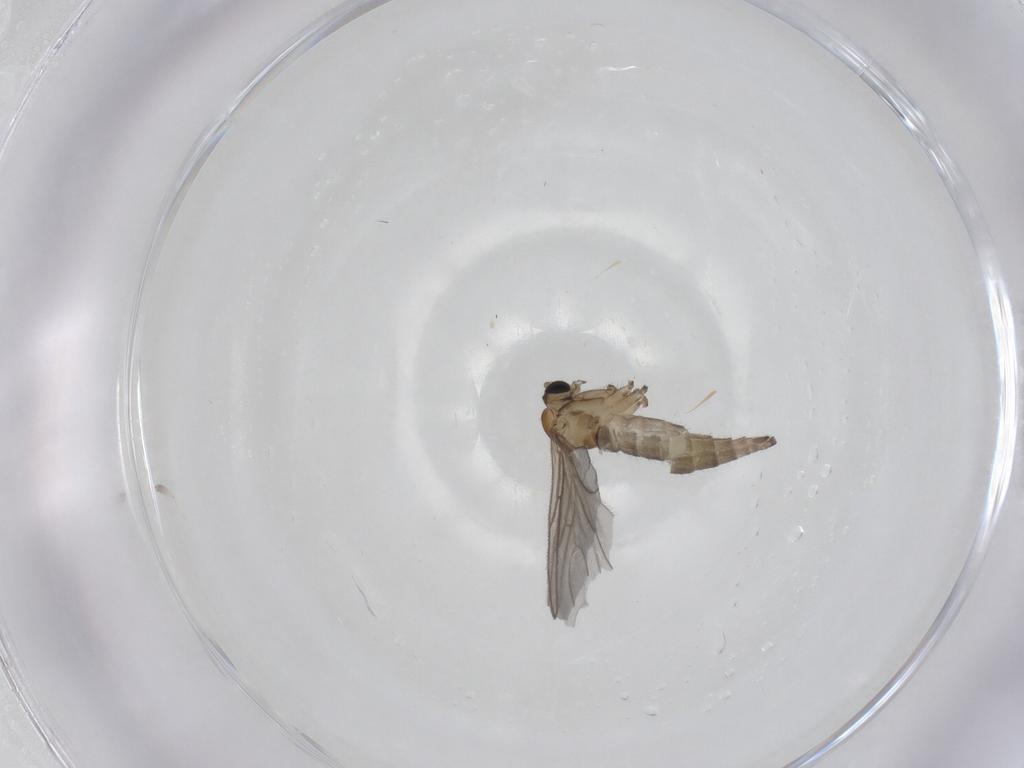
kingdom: Animalia
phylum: Arthropoda
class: Insecta
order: Diptera
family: Sciaridae
